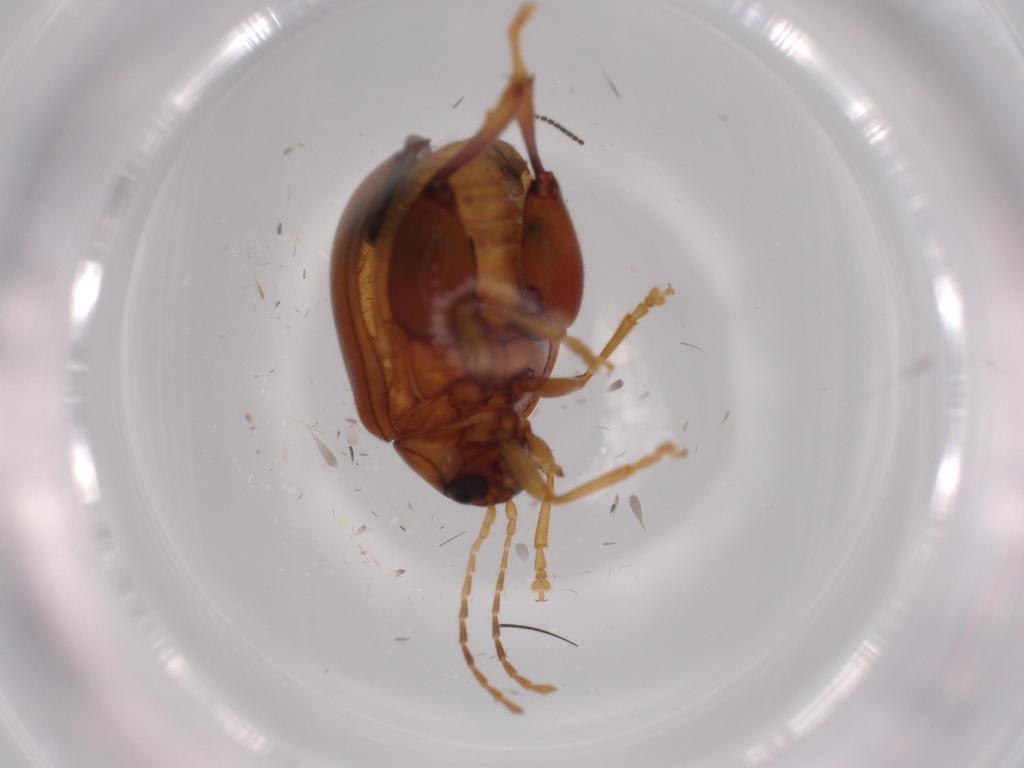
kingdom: Animalia
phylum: Arthropoda
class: Insecta
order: Coleoptera
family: Chrysomelidae
